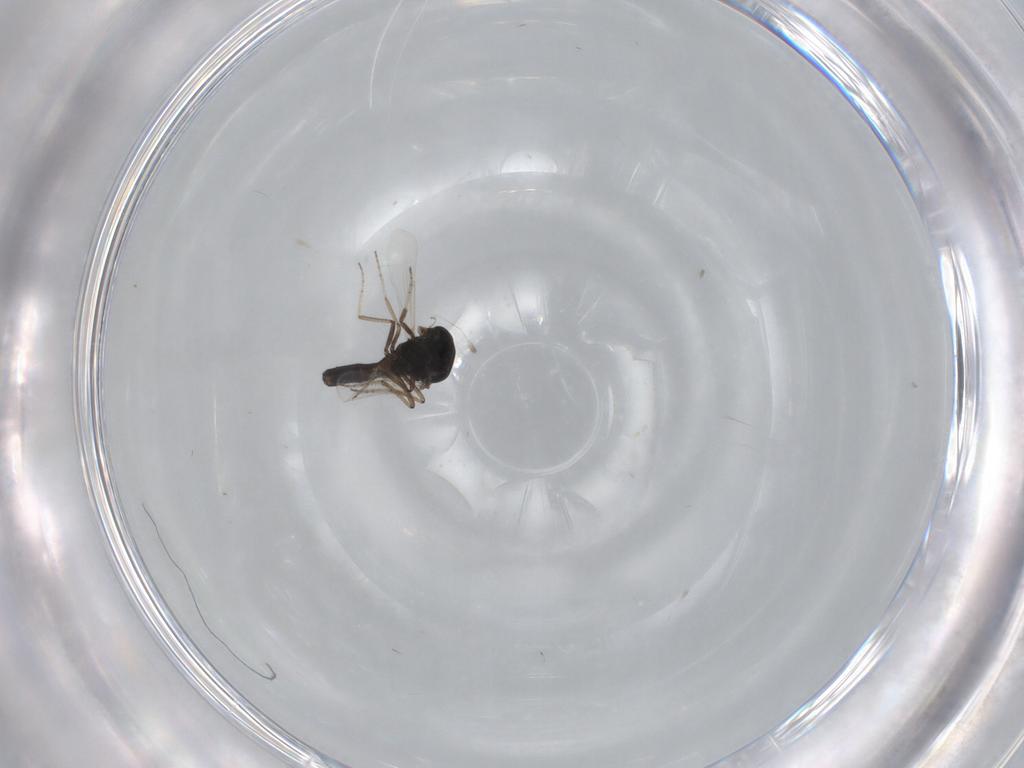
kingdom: Animalia
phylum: Arthropoda
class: Insecta
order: Diptera
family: Ceratopogonidae
